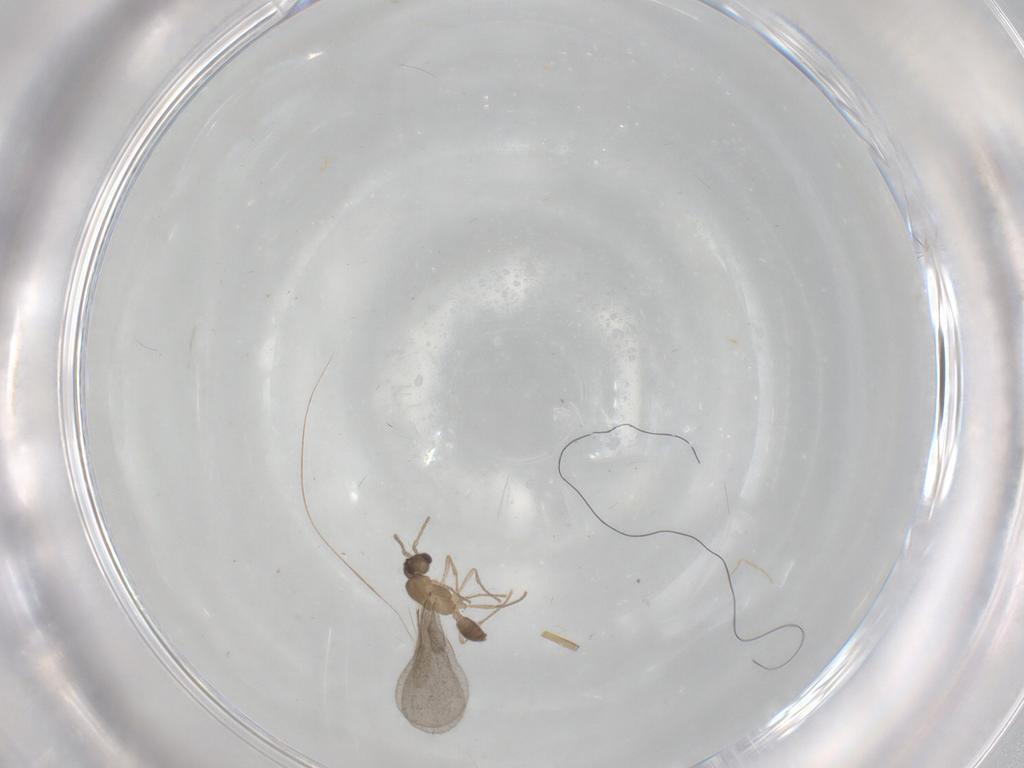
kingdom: Animalia
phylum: Arthropoda
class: Insecta
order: Hymenoptera
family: Formicidae
